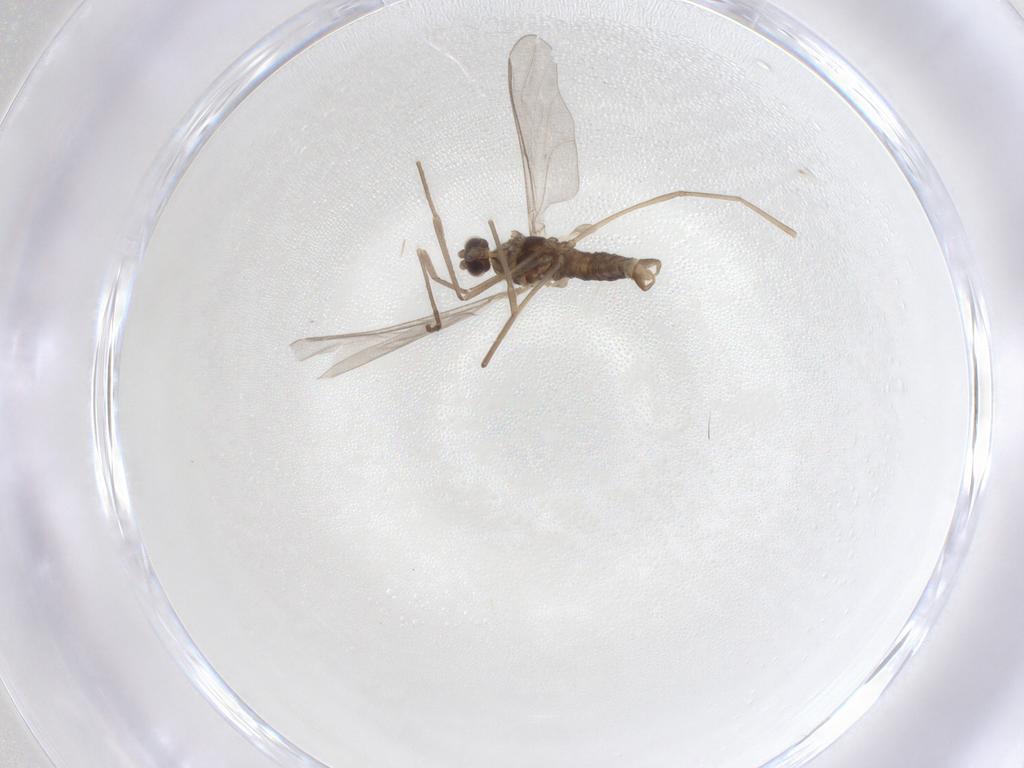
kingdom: Animalia
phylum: Arthropoda
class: Insecta
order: Diptera
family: Cecidomyiidae
